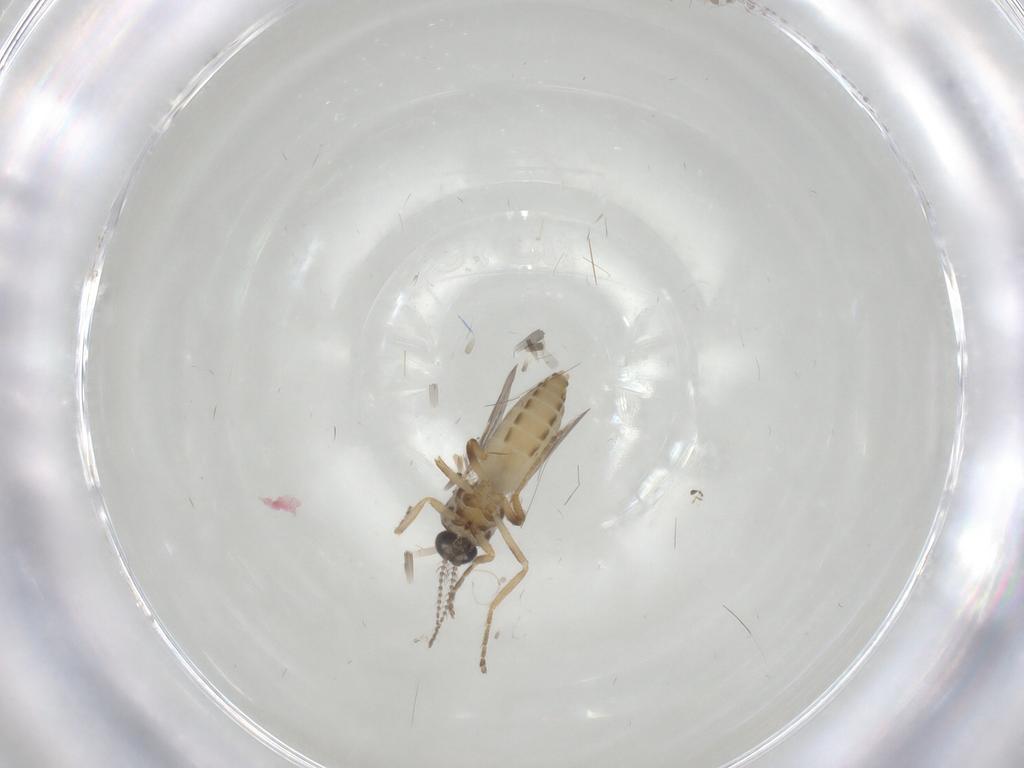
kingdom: Animalia
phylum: Arthropoda
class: Insecta
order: Diptera
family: Ceratopogonidae
